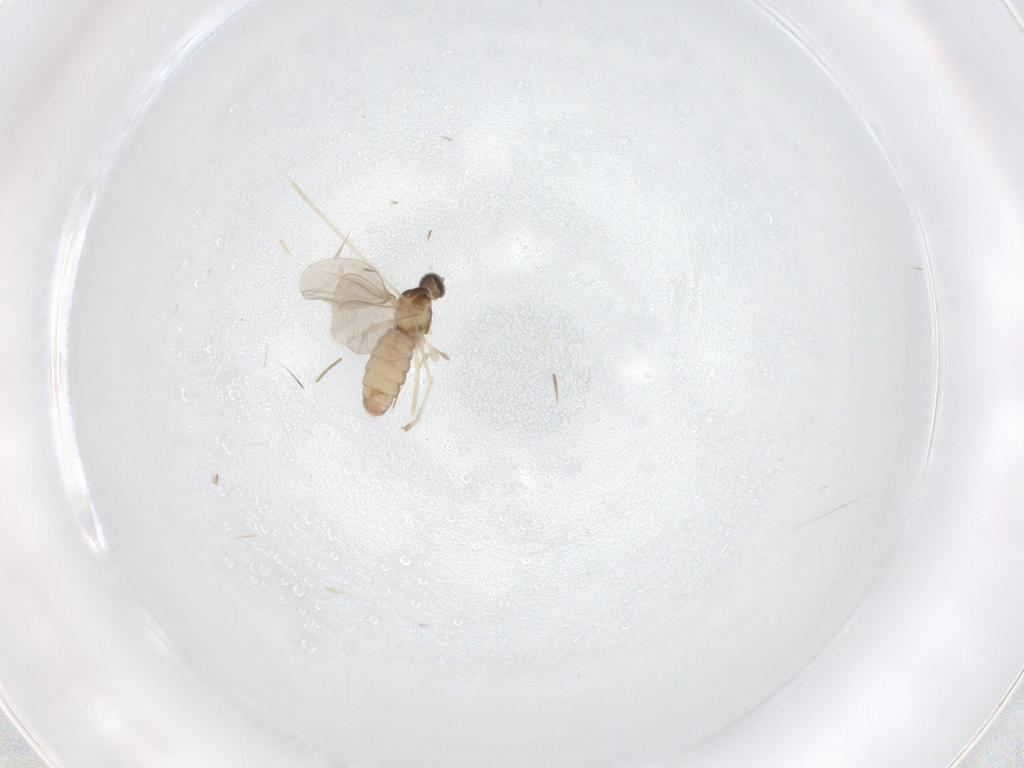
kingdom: Animalia
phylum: Arthropoda
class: Insecta
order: Diptera
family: Cecidomyiidae
